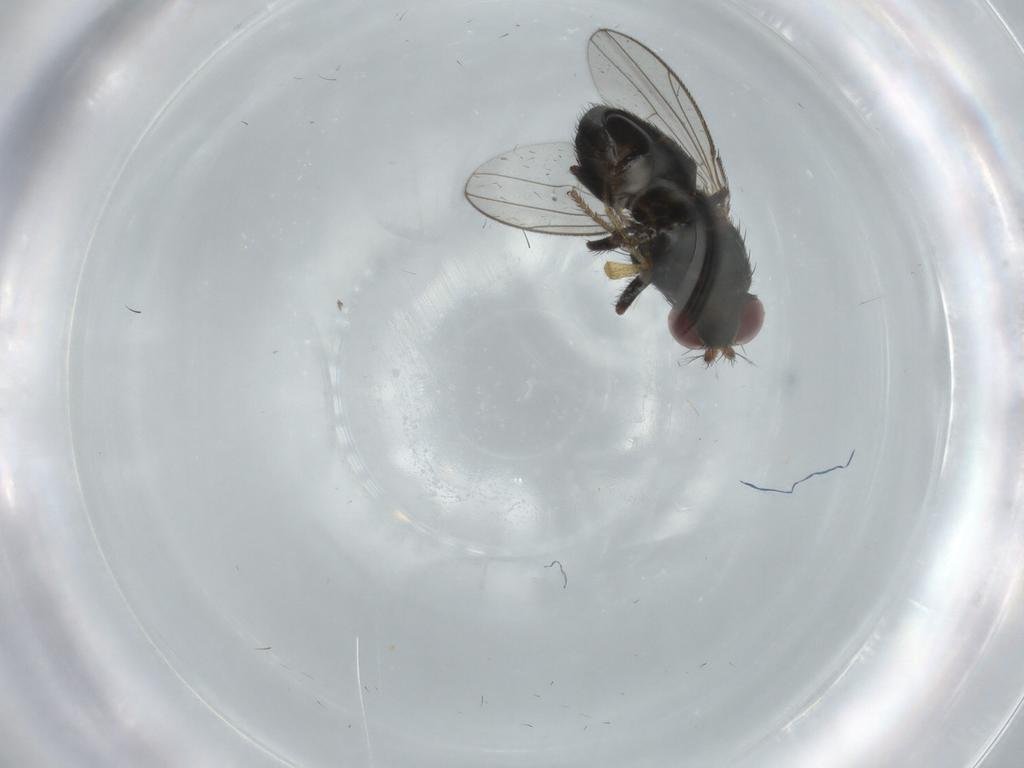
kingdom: Animalia
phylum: Arthropoda
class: Insecta
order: Diptera
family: Ephydridae
